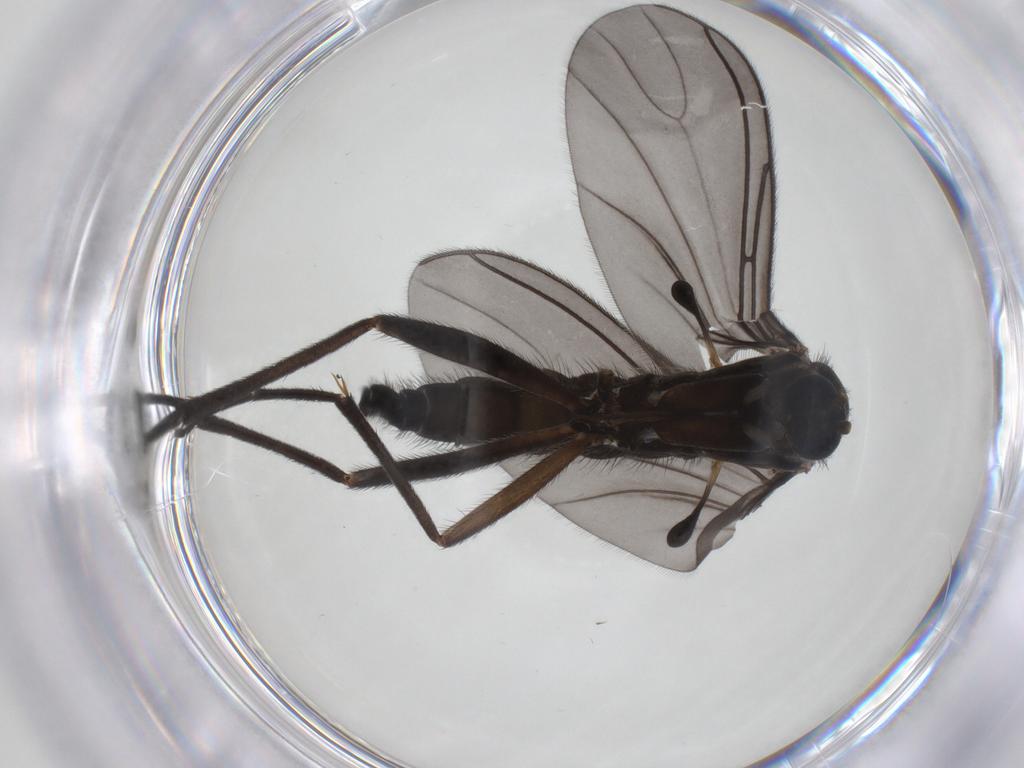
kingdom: Animalia
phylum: Arthropoda
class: Insecta
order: Diptera
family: Sciaridae
